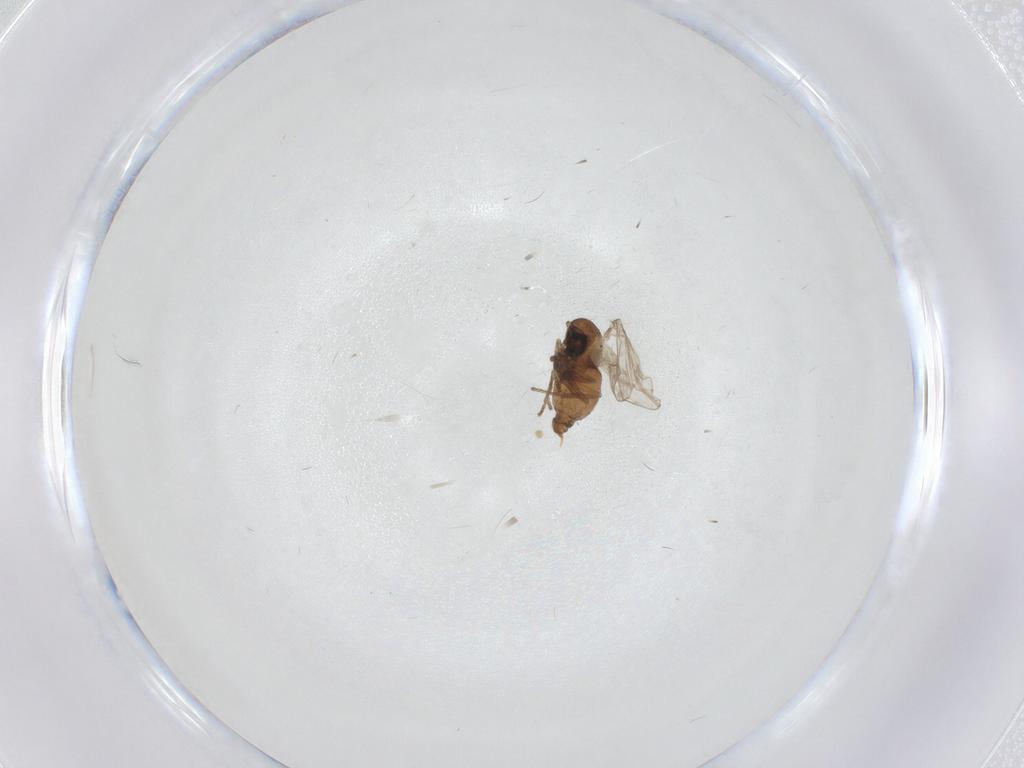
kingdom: Animalia
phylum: Arthropoda
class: Insecta
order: Diptera
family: Psychodidae
